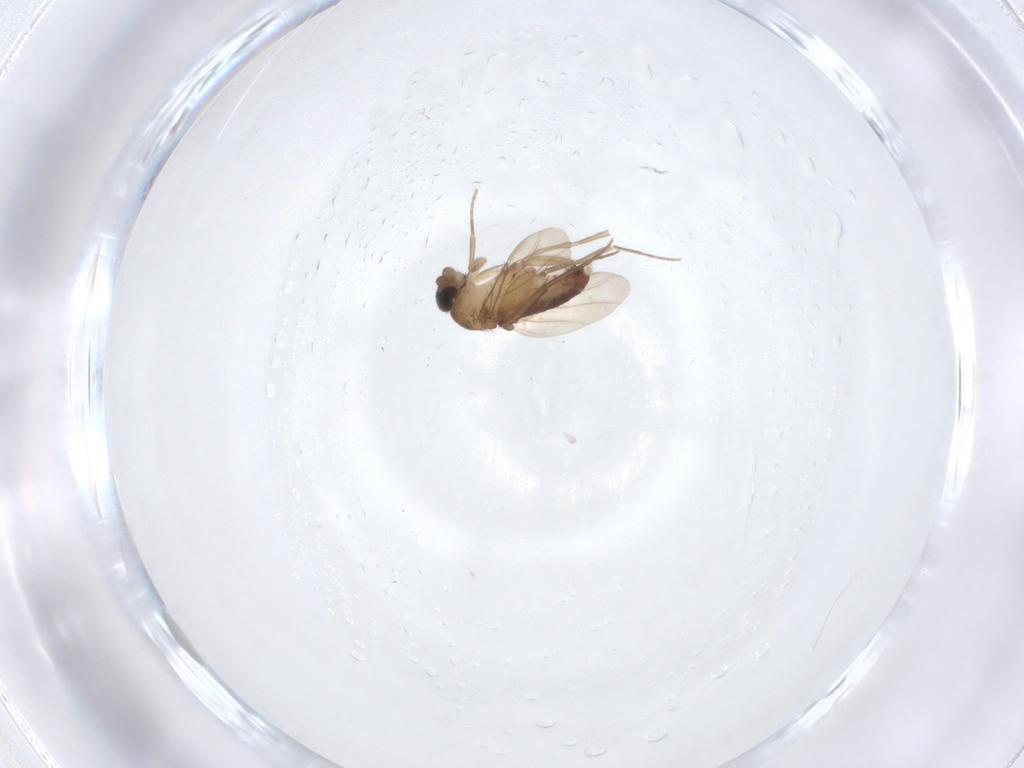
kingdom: Animalia
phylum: Arthropoda
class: Insecta
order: Diptera
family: Phoridae
